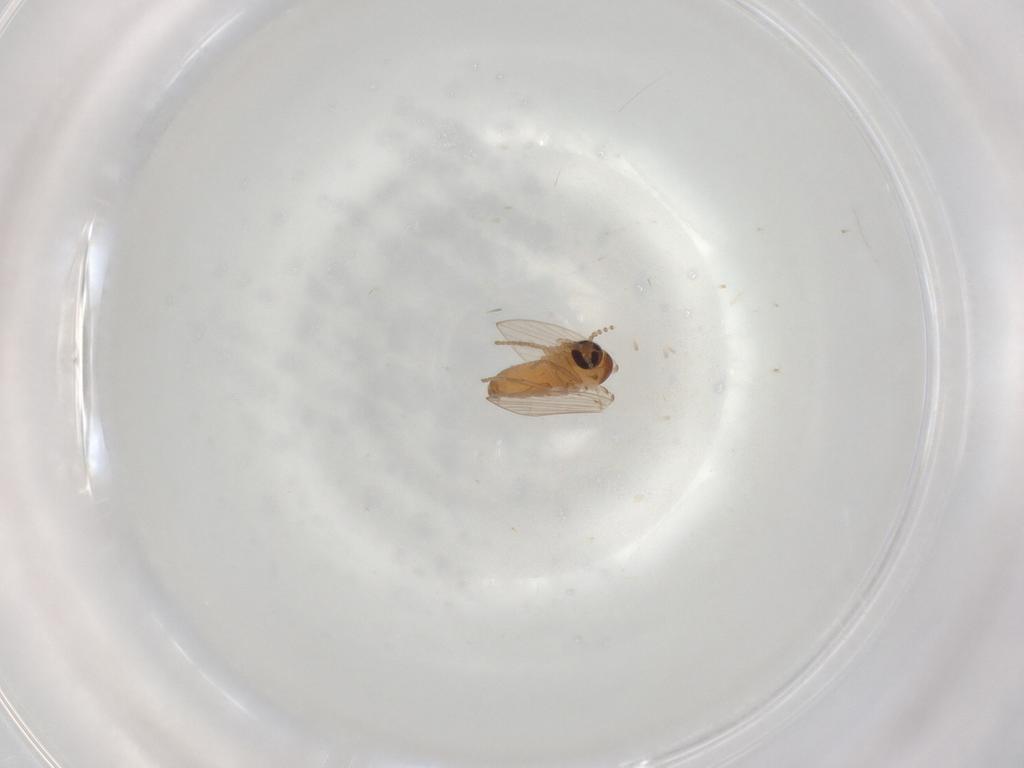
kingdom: Animalia
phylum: Arthropoda
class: Insecta
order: Diptera
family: Psychodidae
